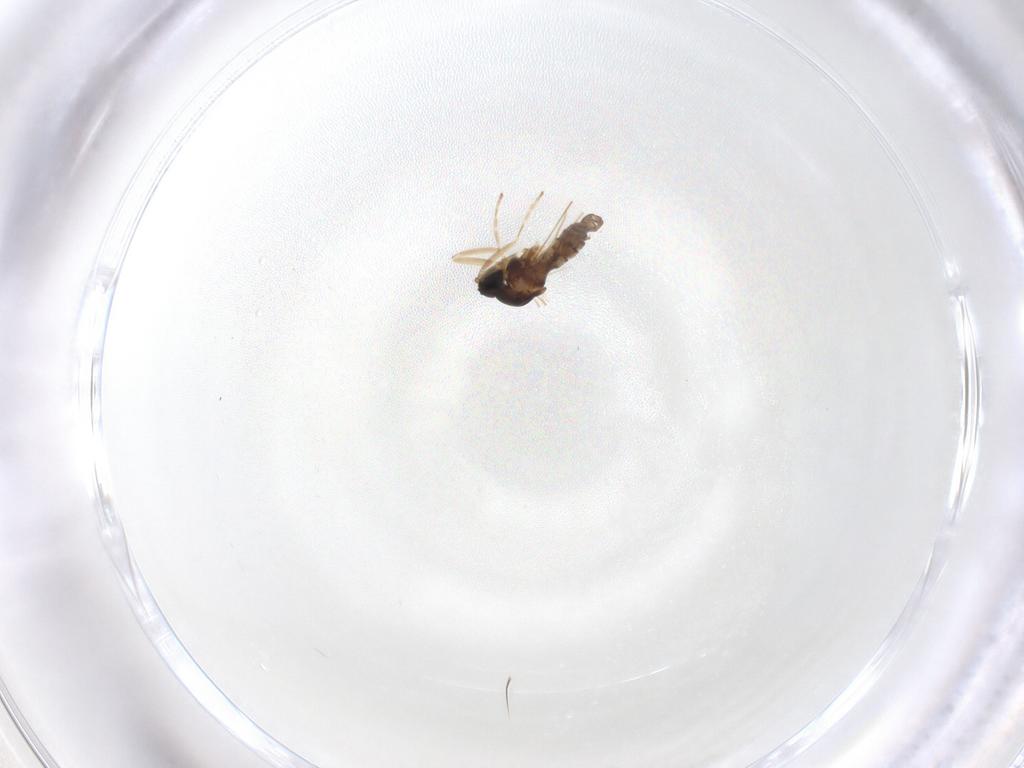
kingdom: Animalia
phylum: Arthropoda
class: Insecta
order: Diptera
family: Cecidomyiidae
